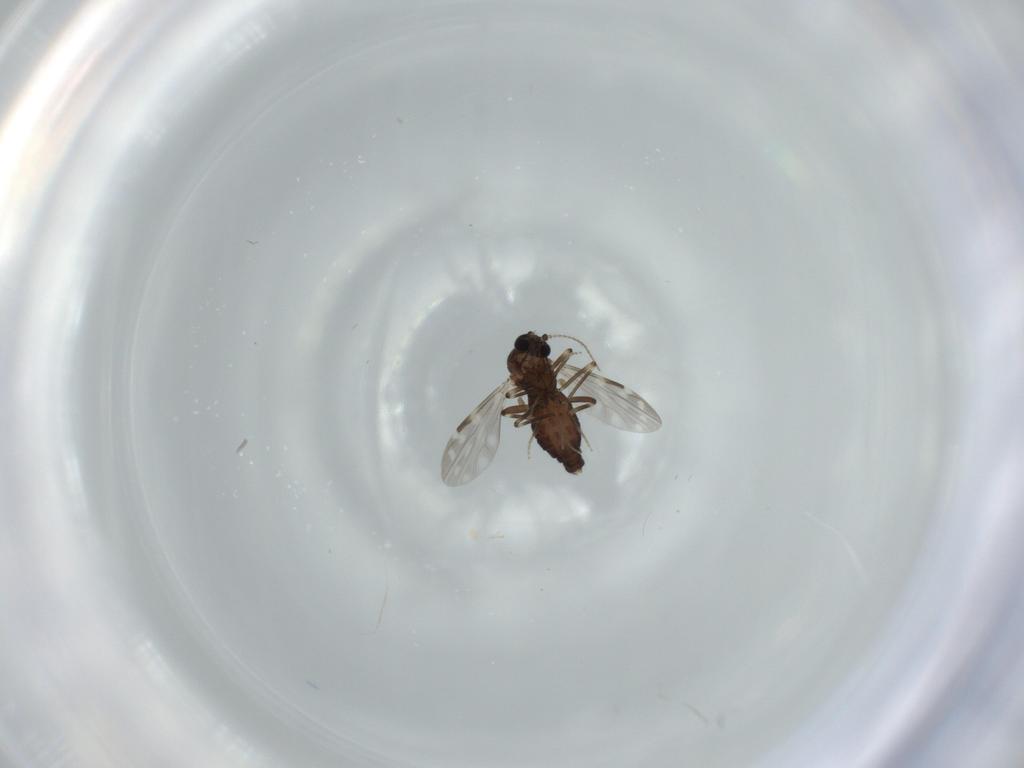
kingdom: Animalia
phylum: Arthropoda
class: Insecta
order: Diptera
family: Ceratopogonidae
